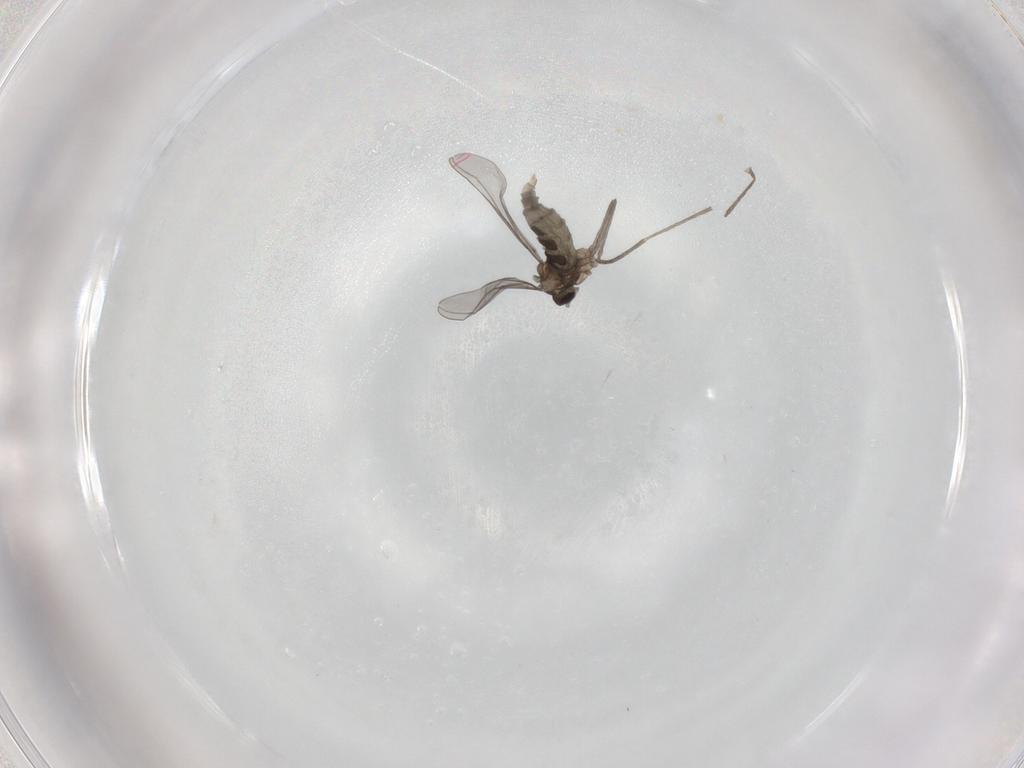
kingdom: Animalia
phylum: Arthropoda
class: Insecta
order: Diptera
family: Cecidomyiidae
